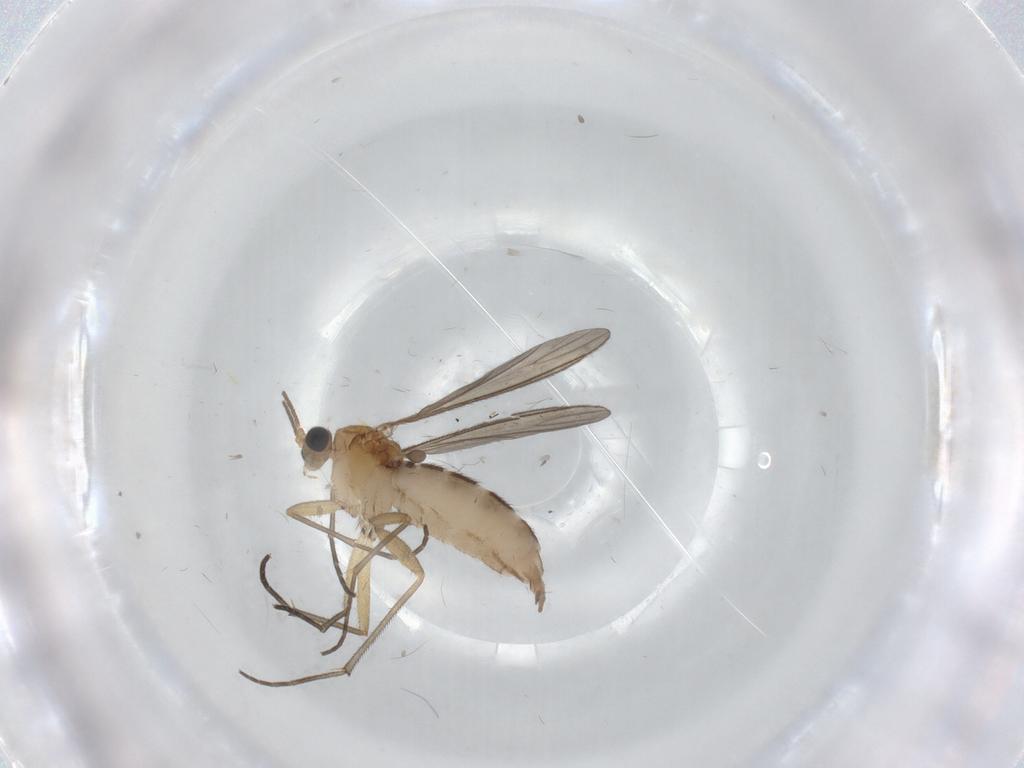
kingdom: Animalia
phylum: Arthropoda
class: Insecta
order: Diptera
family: Sciaridae
